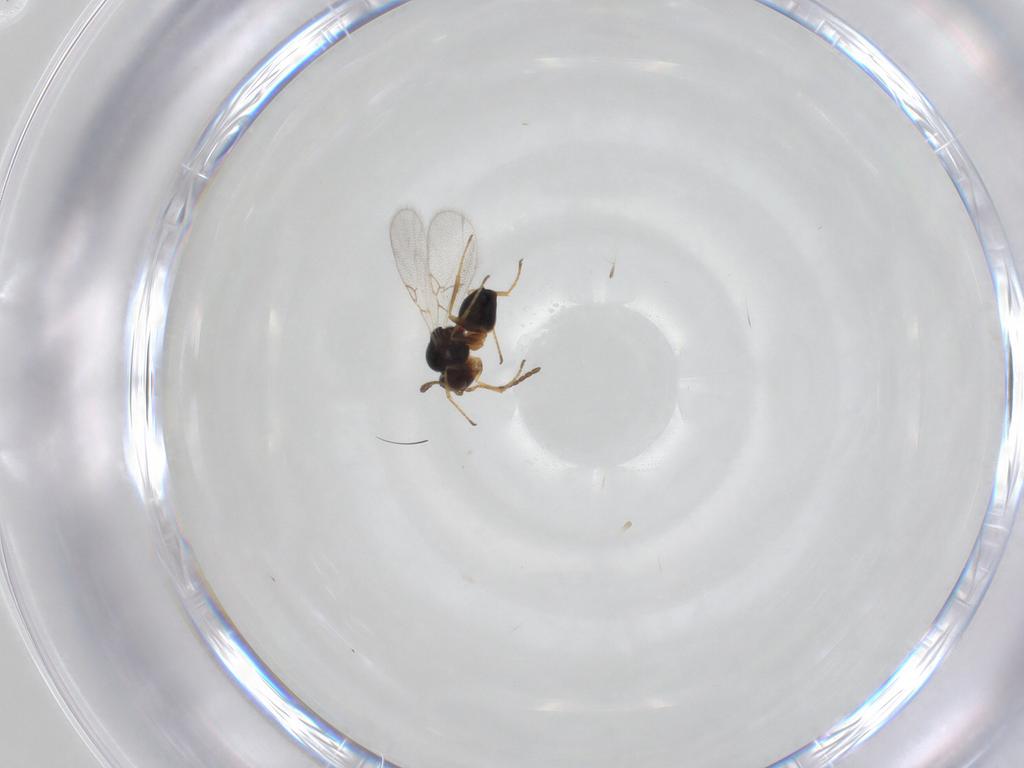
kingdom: Animalia
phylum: Arthropoda
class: Insecta
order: Hymenoptera
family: Figitidae
